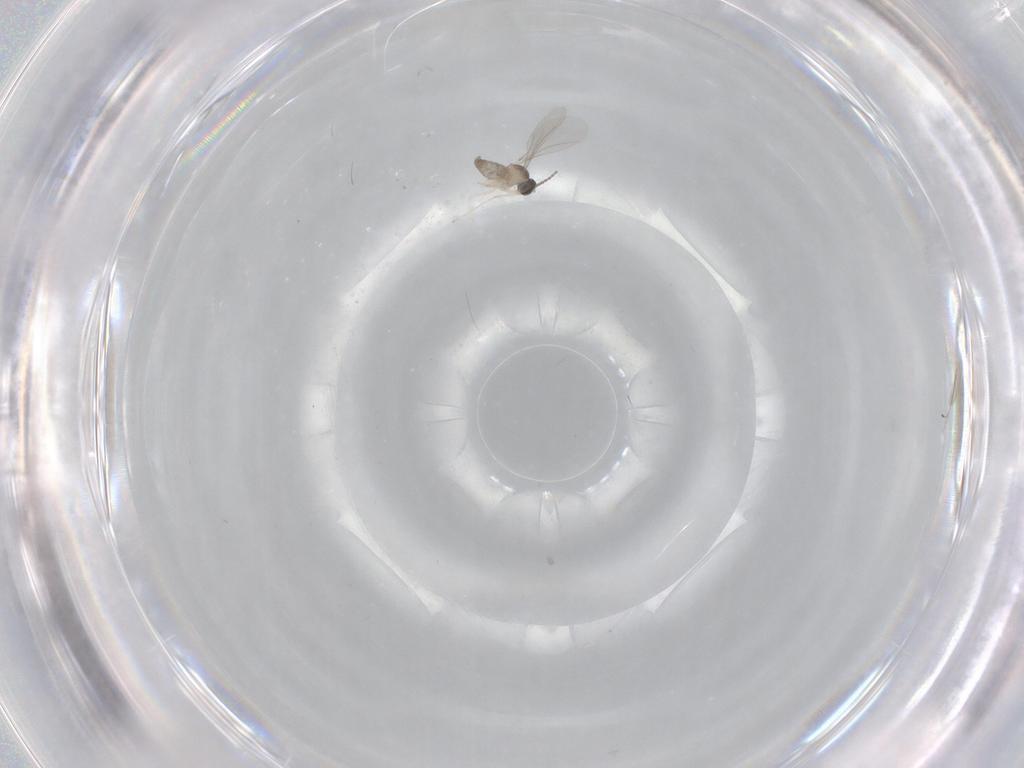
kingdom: Animalia
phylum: Arthropoda
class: Insecta
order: Diptera
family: Cecidomyiidae
